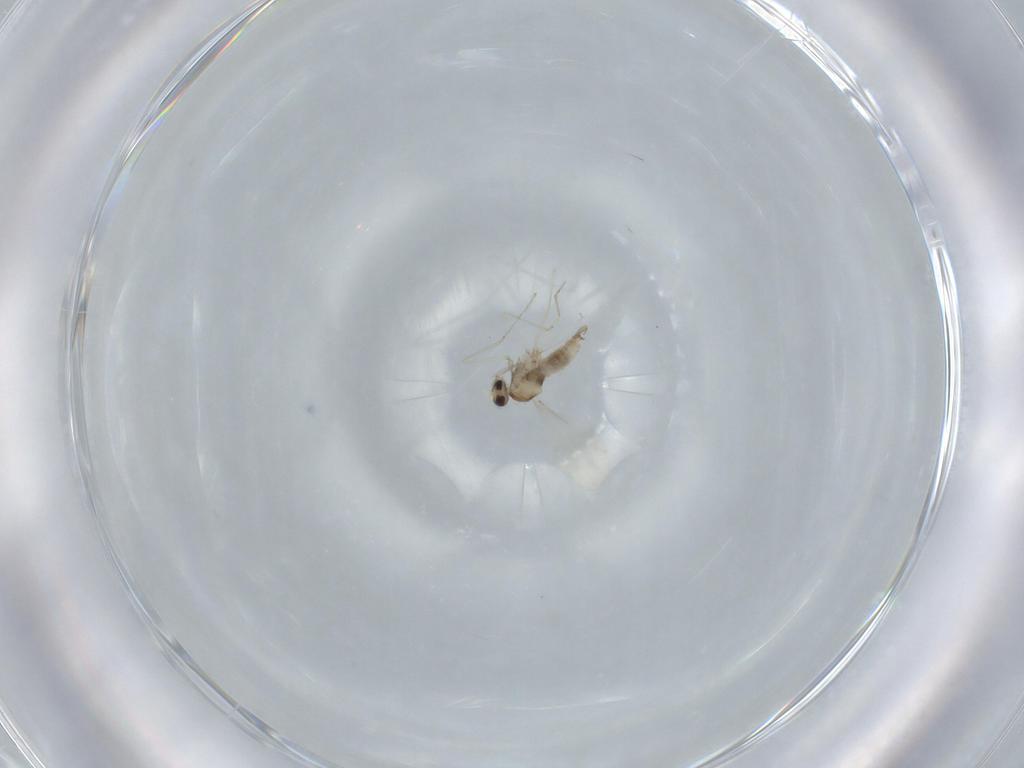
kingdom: Animalia
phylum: Arthropoda
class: Insecta
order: Diptera
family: Cecidomyiidae
